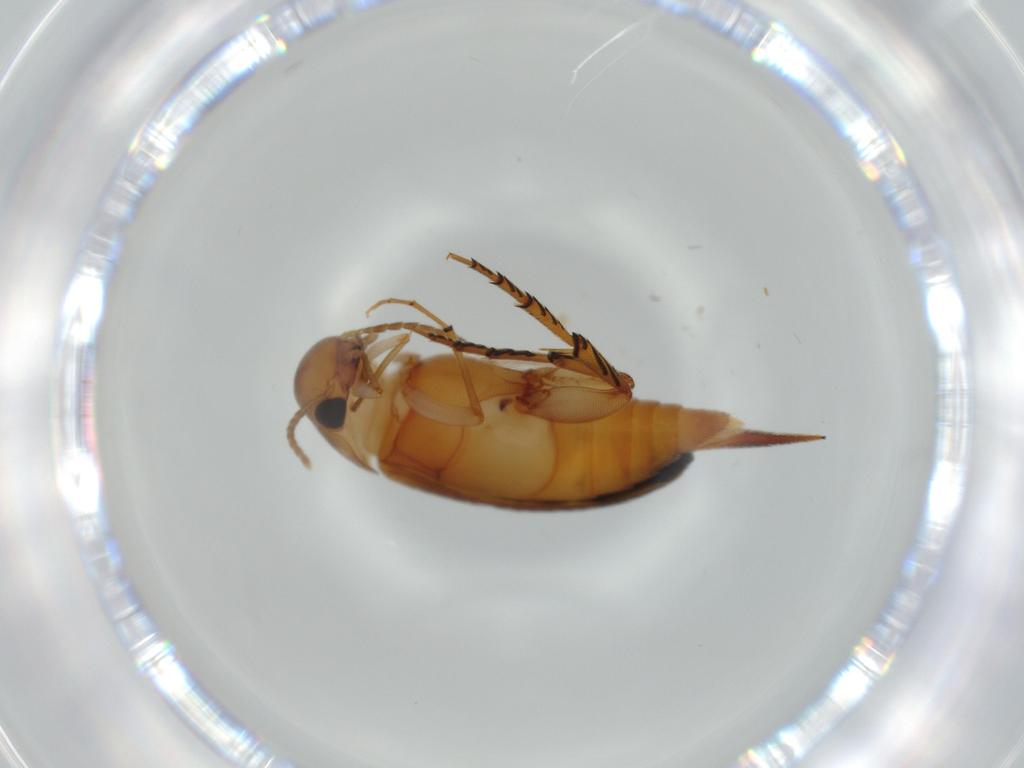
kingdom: Animalia
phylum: Arthropoda
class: Insecta
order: Coleoptera
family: Mordellidae
